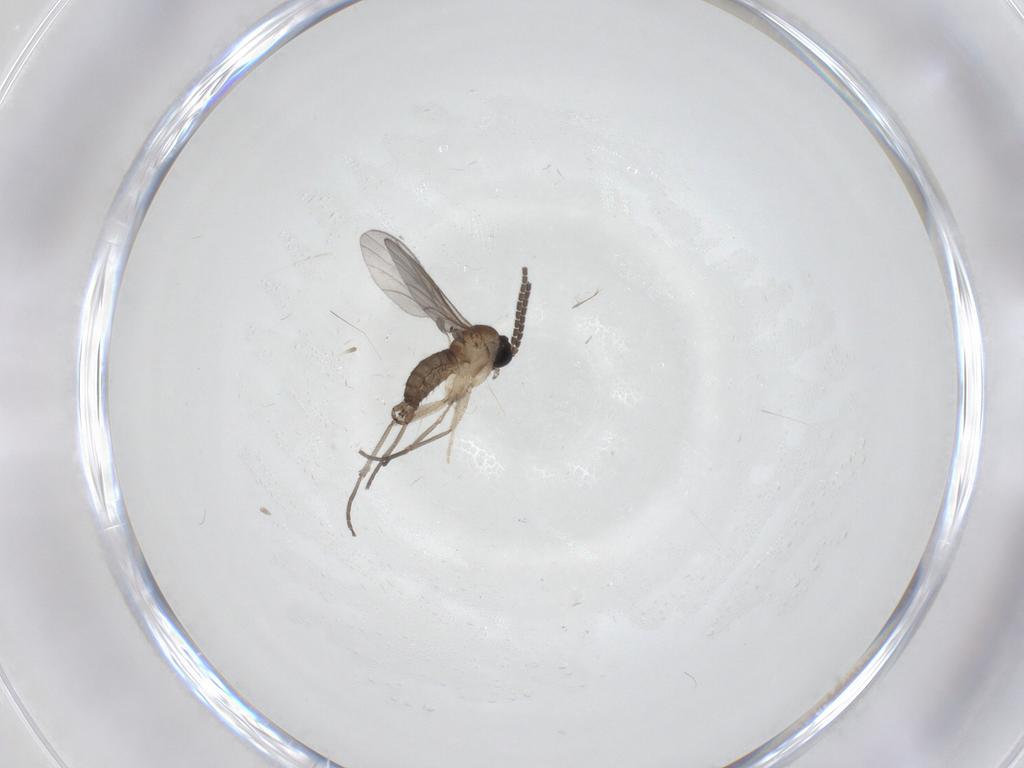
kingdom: Animalia
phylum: Arthropoda
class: Insecta
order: Diptera
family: Sciaridae
